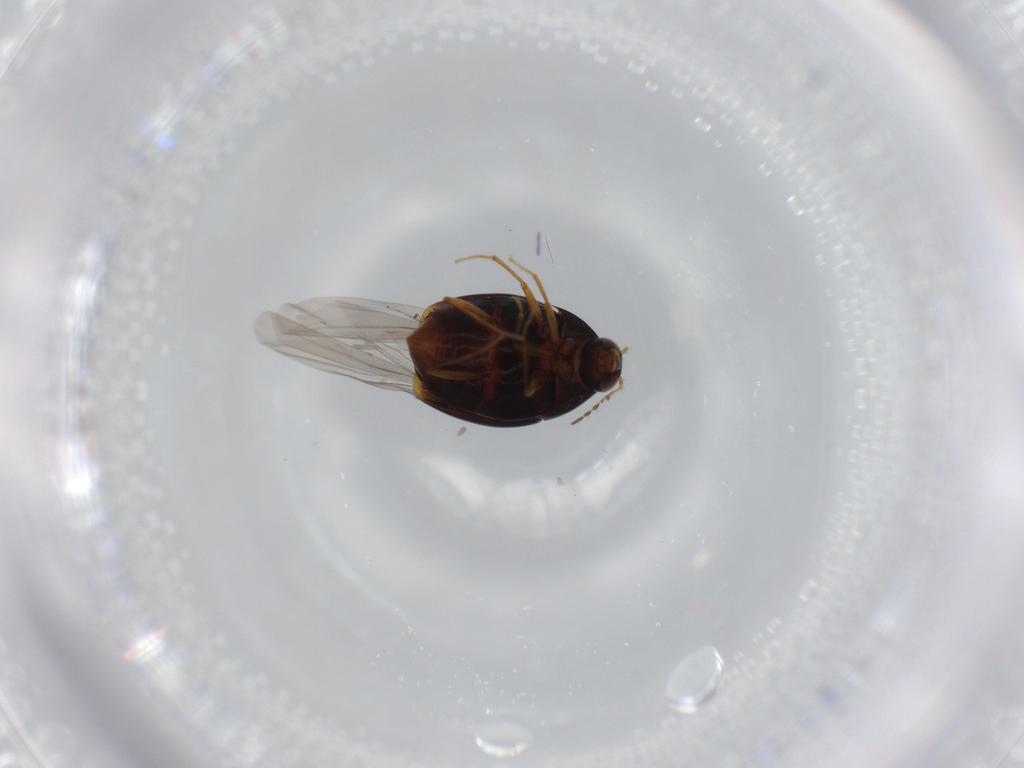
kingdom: Animalia
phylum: Arthropoda
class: Insecta
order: Coleoptera
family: Staphylinidae
